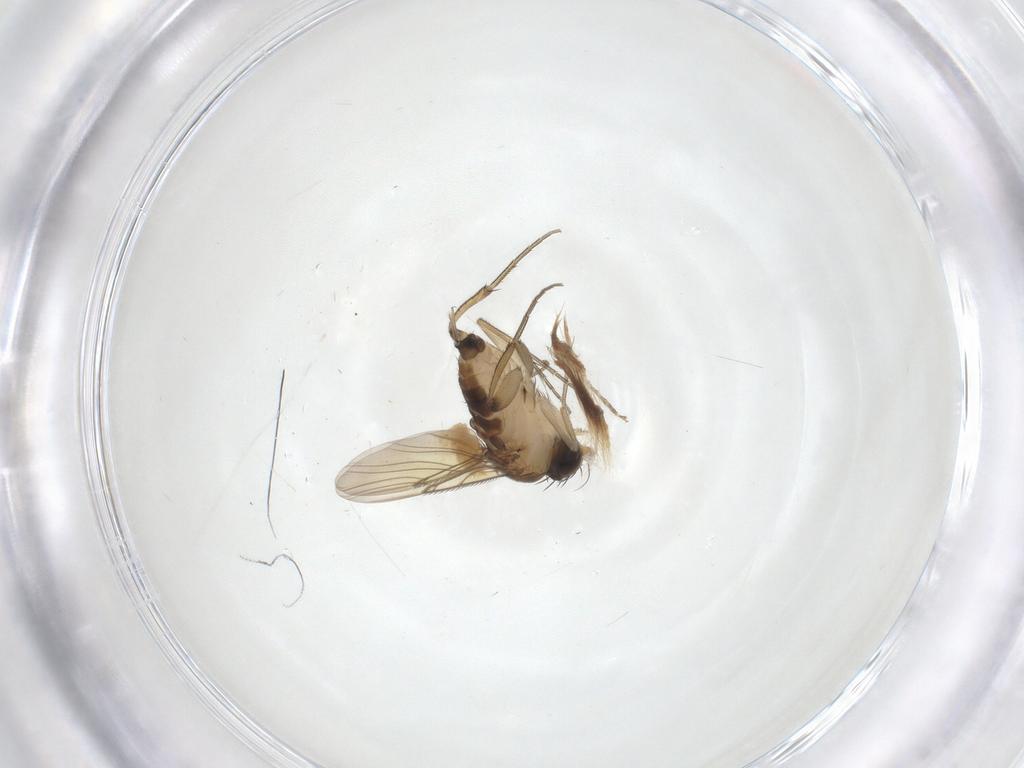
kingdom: Animalia
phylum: Arthropoda
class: Insecta
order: Diptera
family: Phoridae
